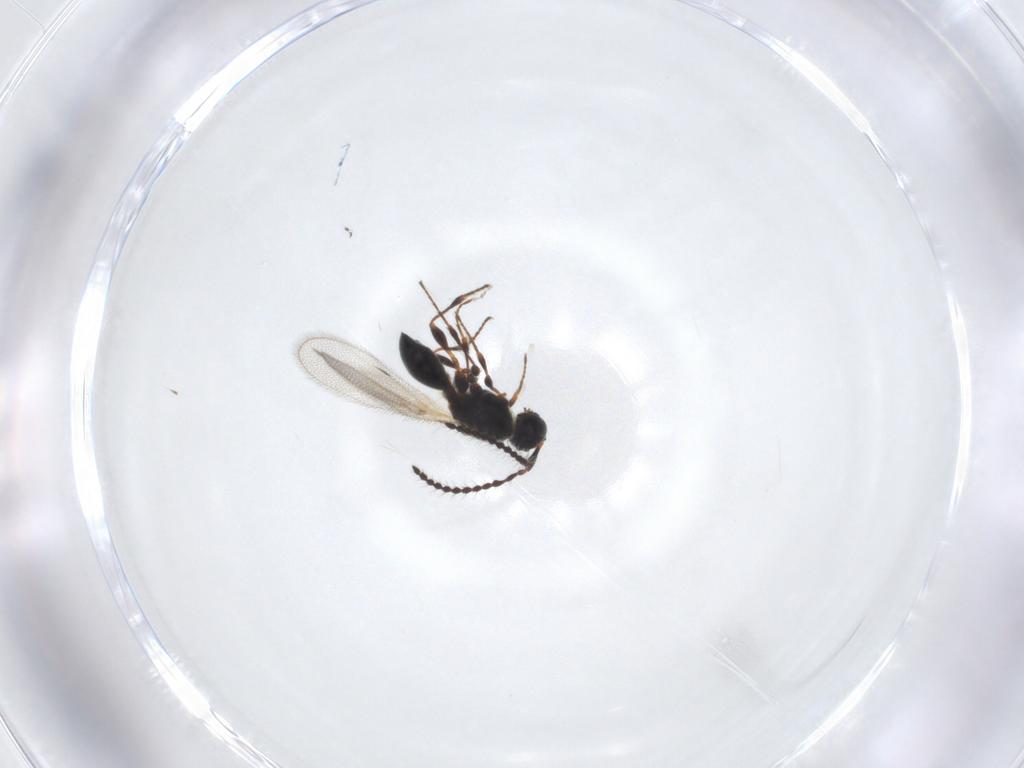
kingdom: Animalia
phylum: Arthropoda
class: Insecta
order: Hymenoptera
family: Diapriidae
